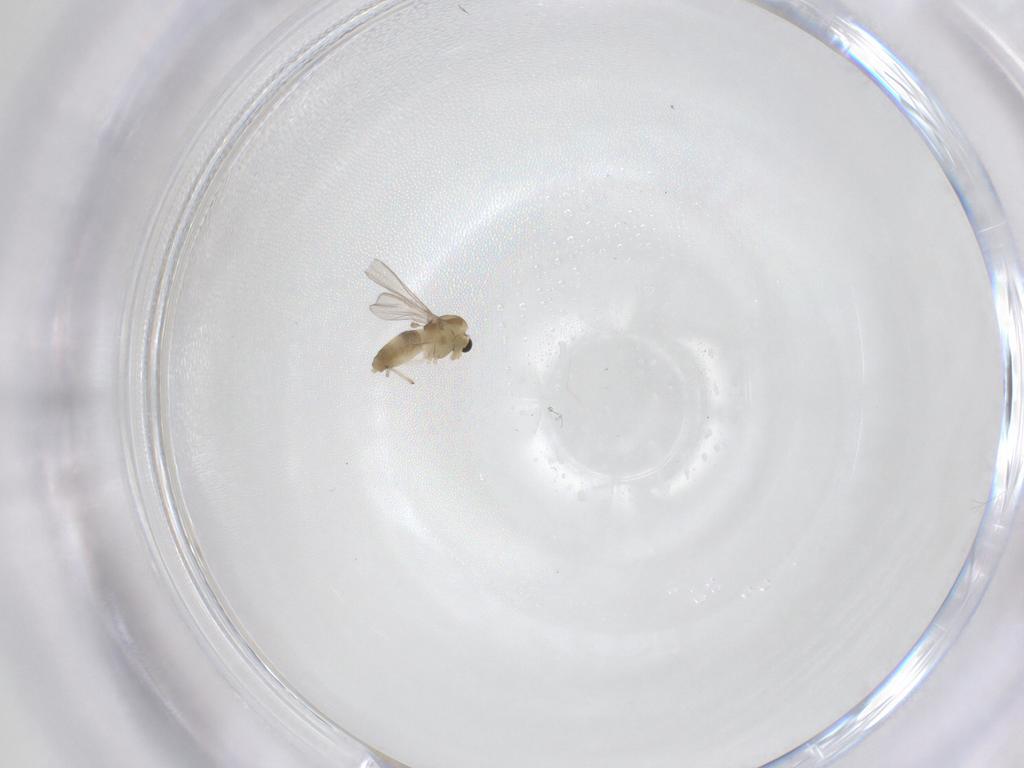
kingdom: Animalia
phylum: Arthropoda
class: Insecta
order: Diptera
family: Chironomidae
